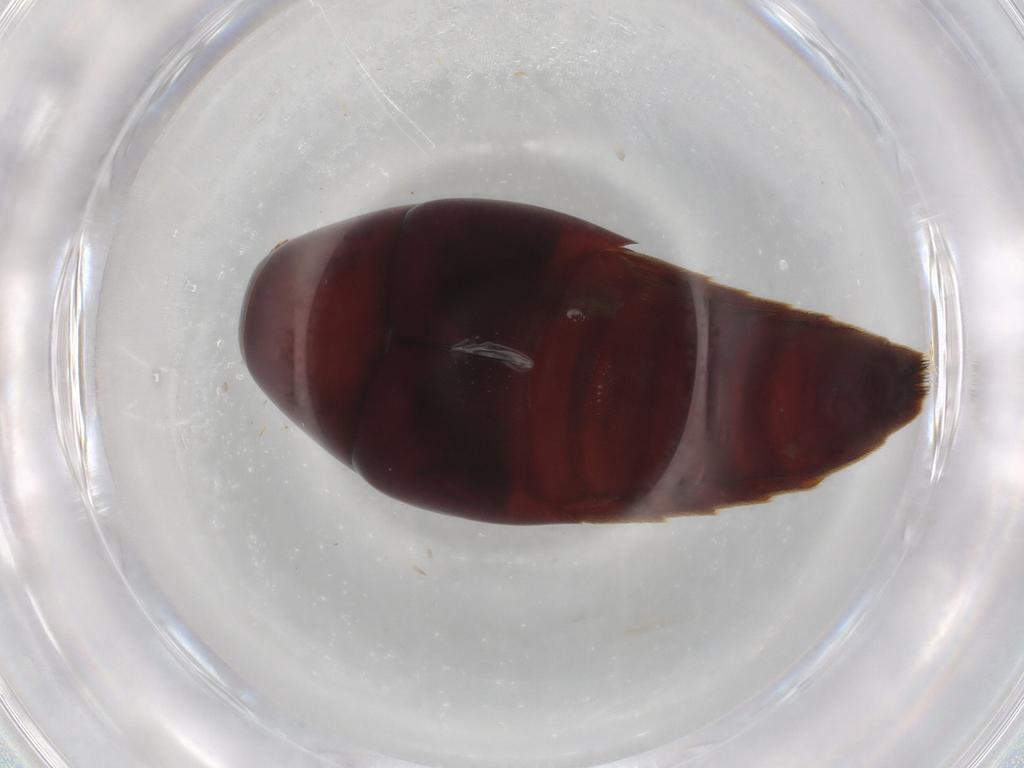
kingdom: Animalia
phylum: Arthropoda
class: Insecta
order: Coleoptera
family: Staphylinidae
